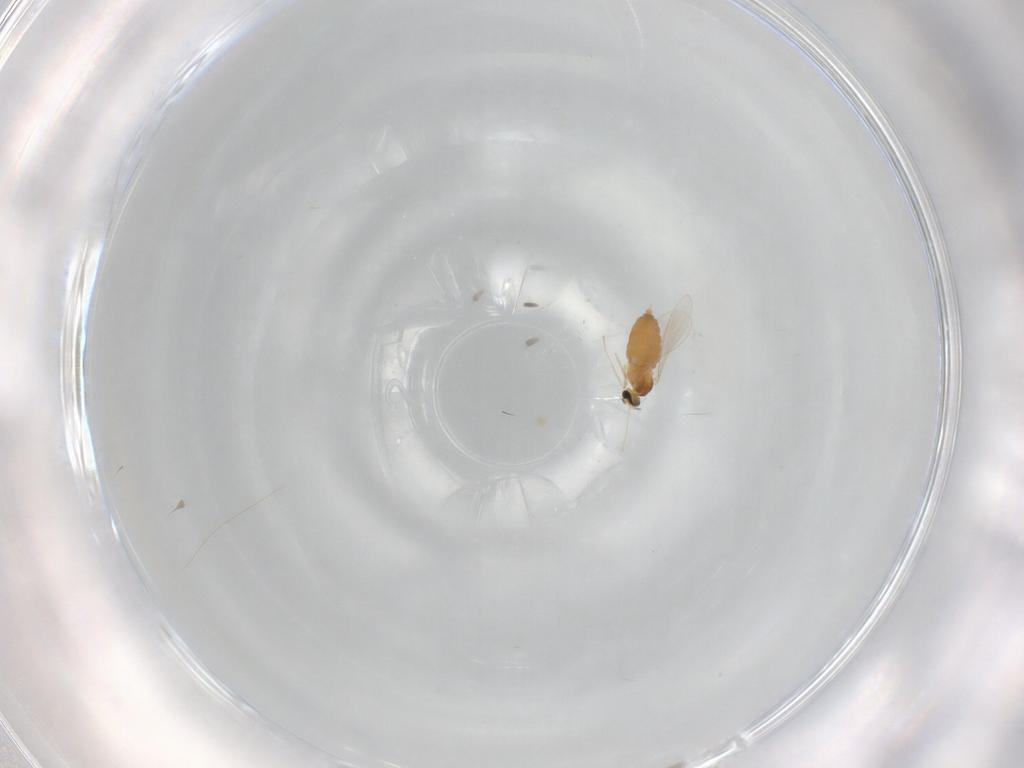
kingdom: Animalia
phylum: Arthropoda
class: Insecta
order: Diptera
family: Cecidomyiidae
